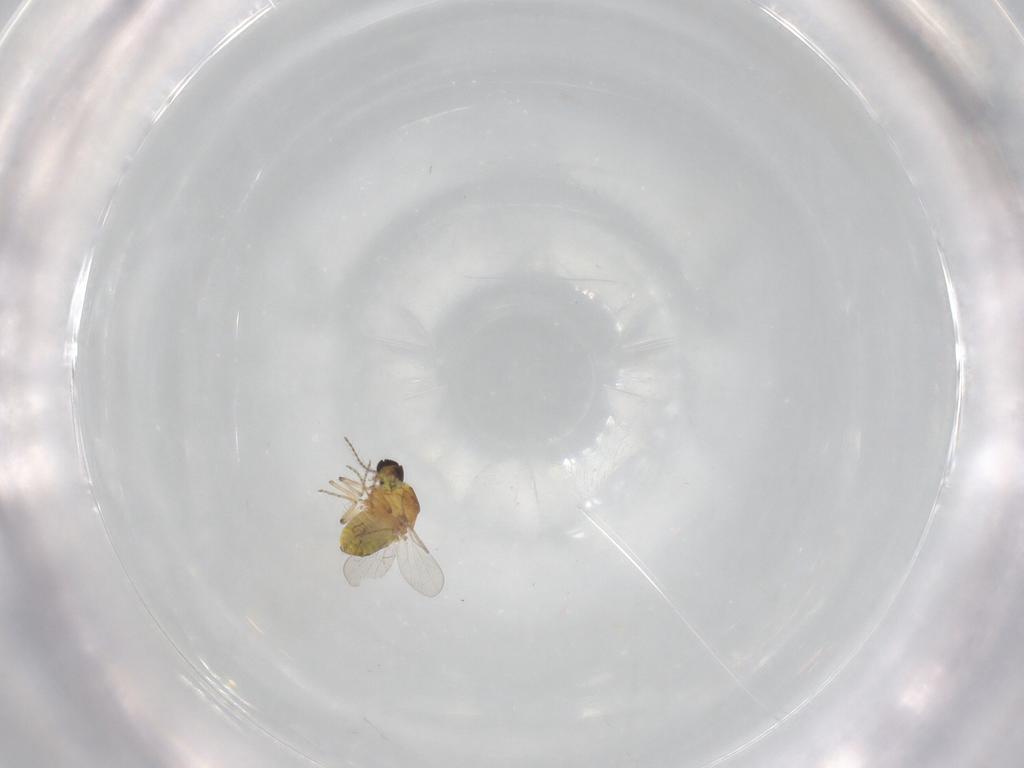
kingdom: Animalia
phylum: Arthropoda
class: Insecta
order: Diptera
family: Ceratopogonidae
